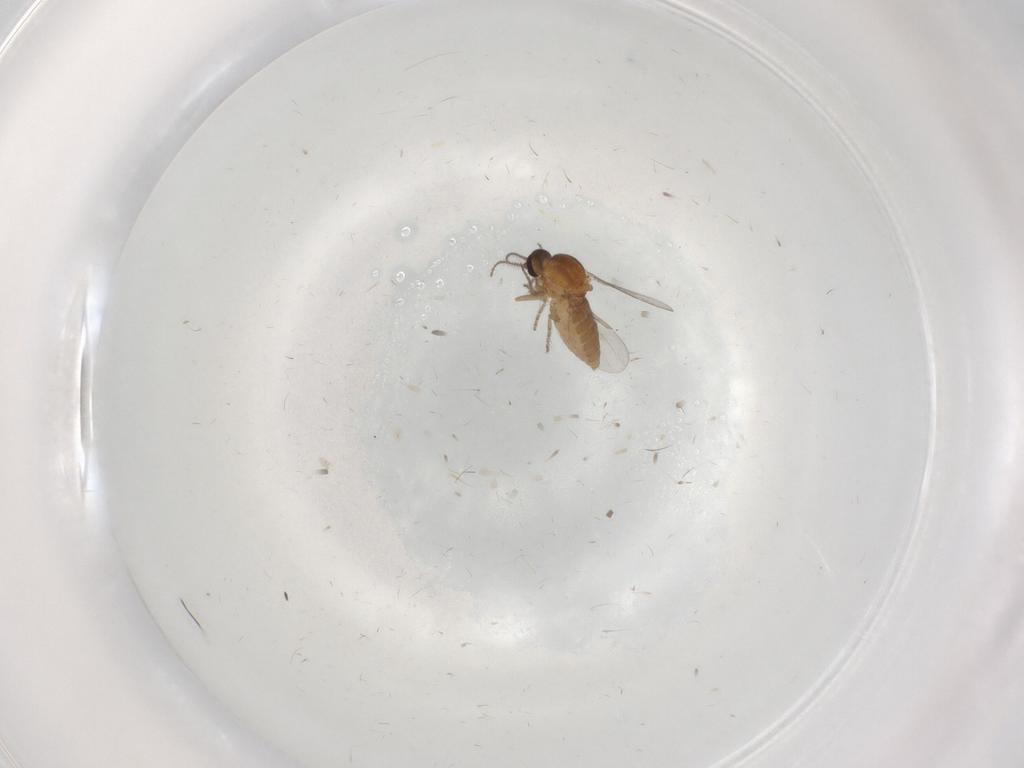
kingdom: Animalia
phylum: Arthropoda
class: Insecta
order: Diptera
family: Ceratopogonidae
